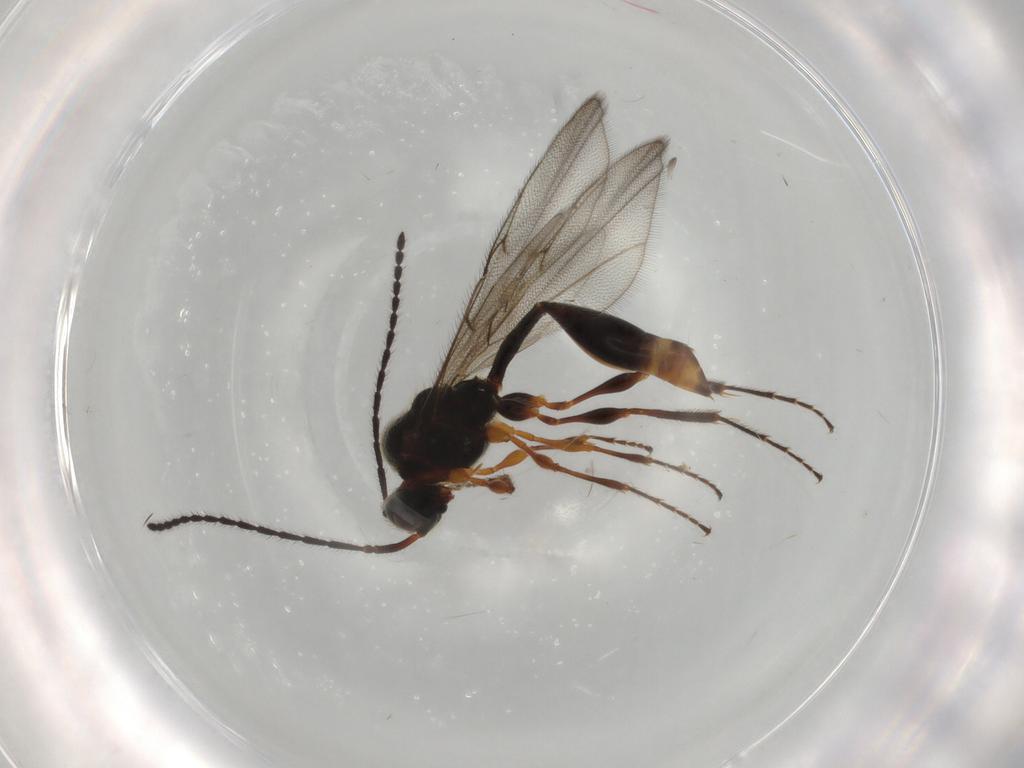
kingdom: Animalia
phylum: Arthropoda
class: Insecta
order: Hymenoptera
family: Diapriidae
